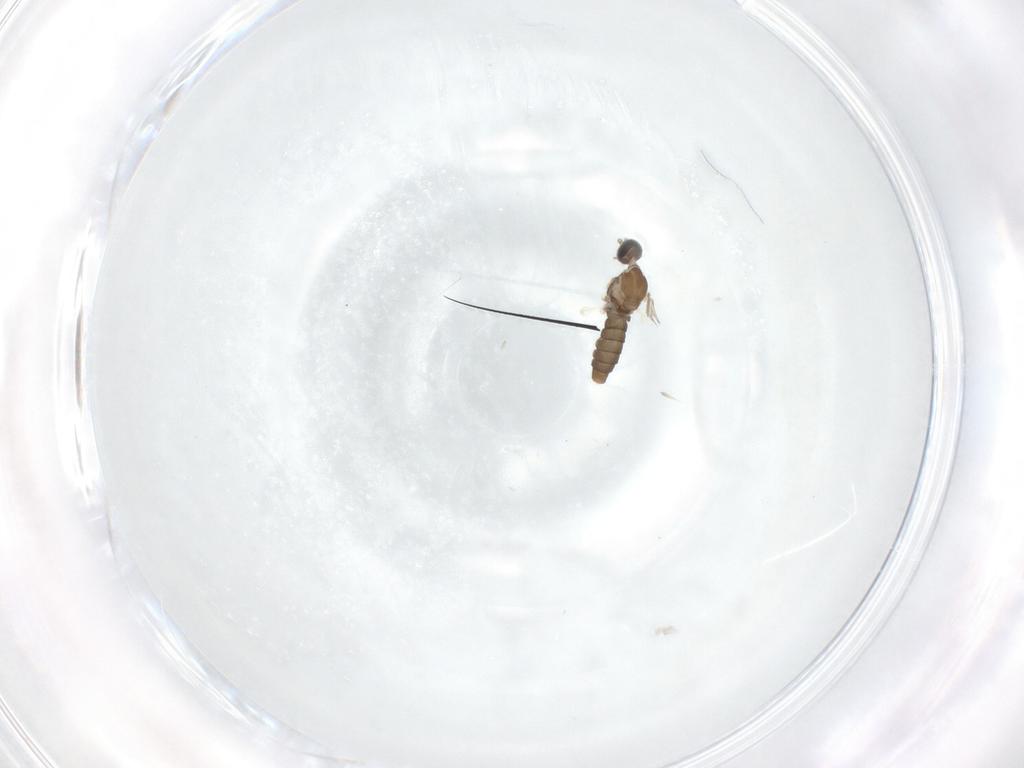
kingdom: Animalia
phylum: Arthropoda
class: Insecta
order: Diptera
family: Cecidomyiidae
